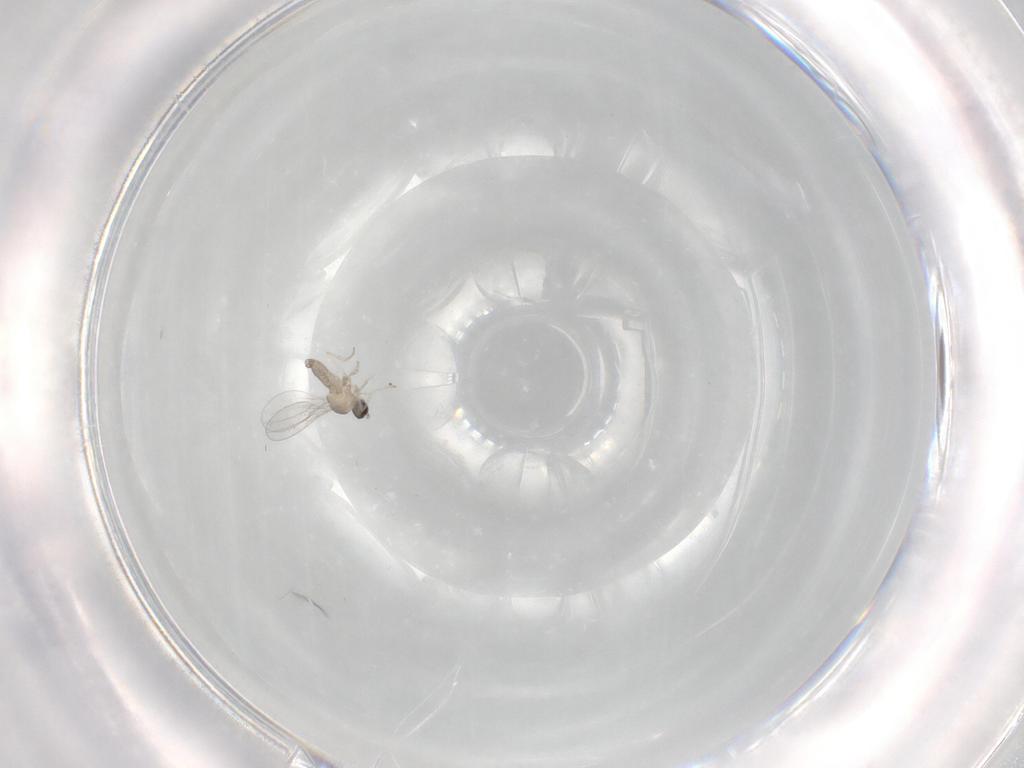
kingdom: Animalia
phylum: Arthropoda
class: Insecta
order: Diptera
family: Cecidomyiidae
